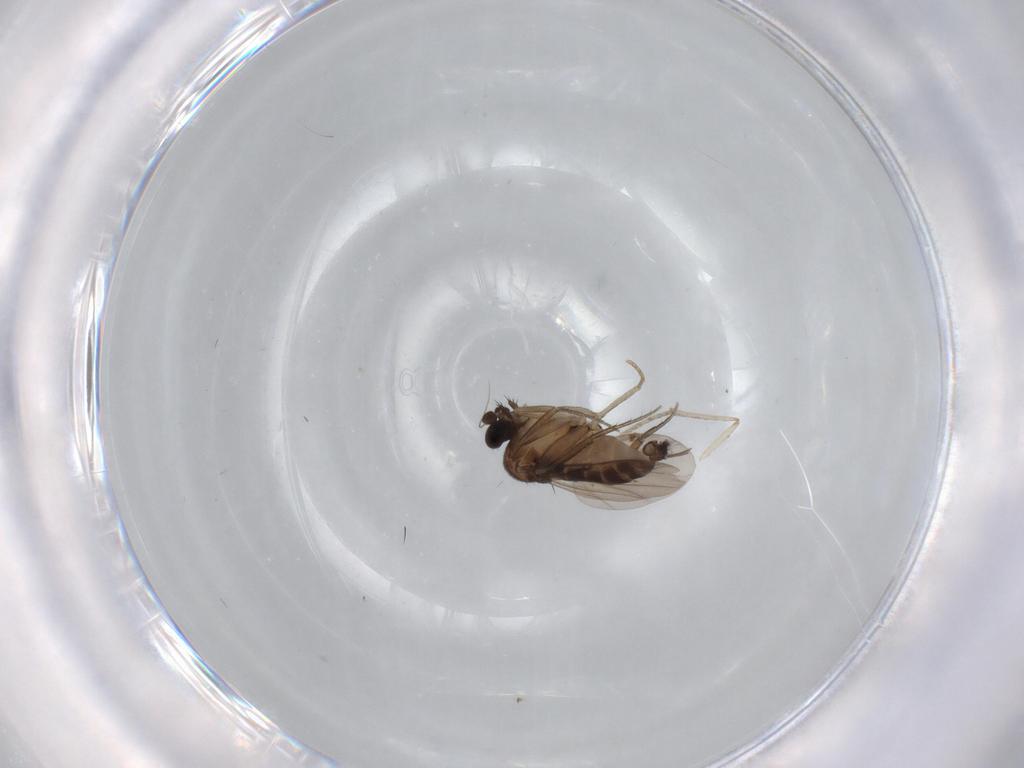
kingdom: Animalia
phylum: Arthropoda
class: Insecta
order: Diptera
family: Phoridae
